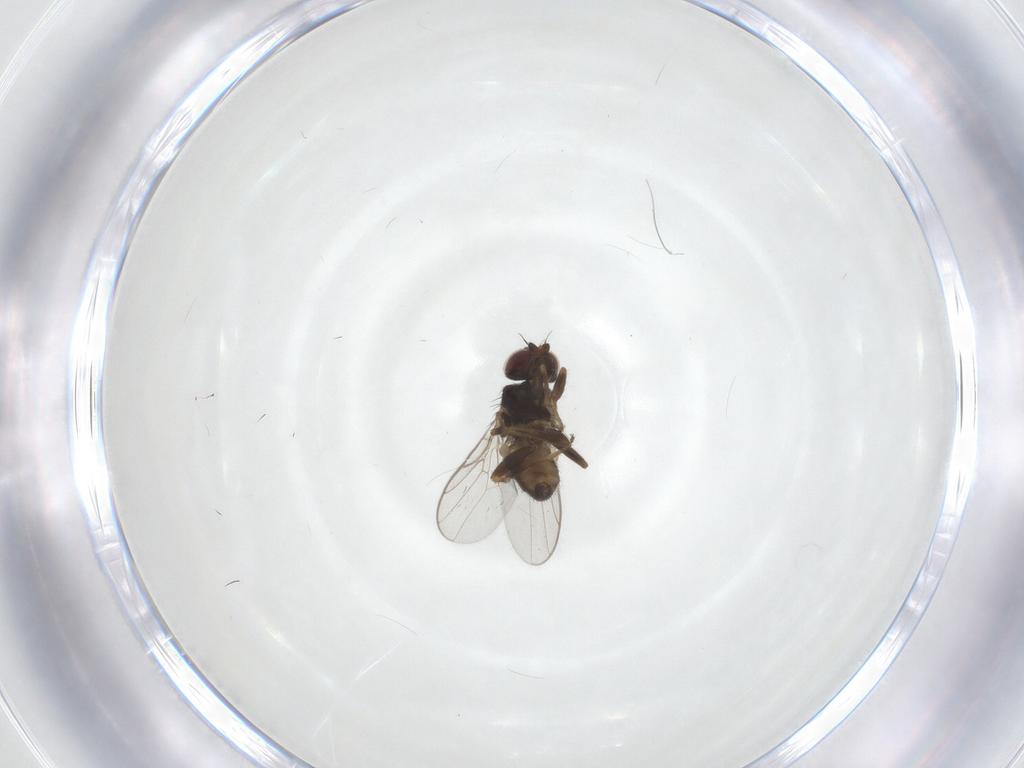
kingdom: Animalia
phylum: Arthropoda
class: Insecta
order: Diptera
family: Chloropidae
